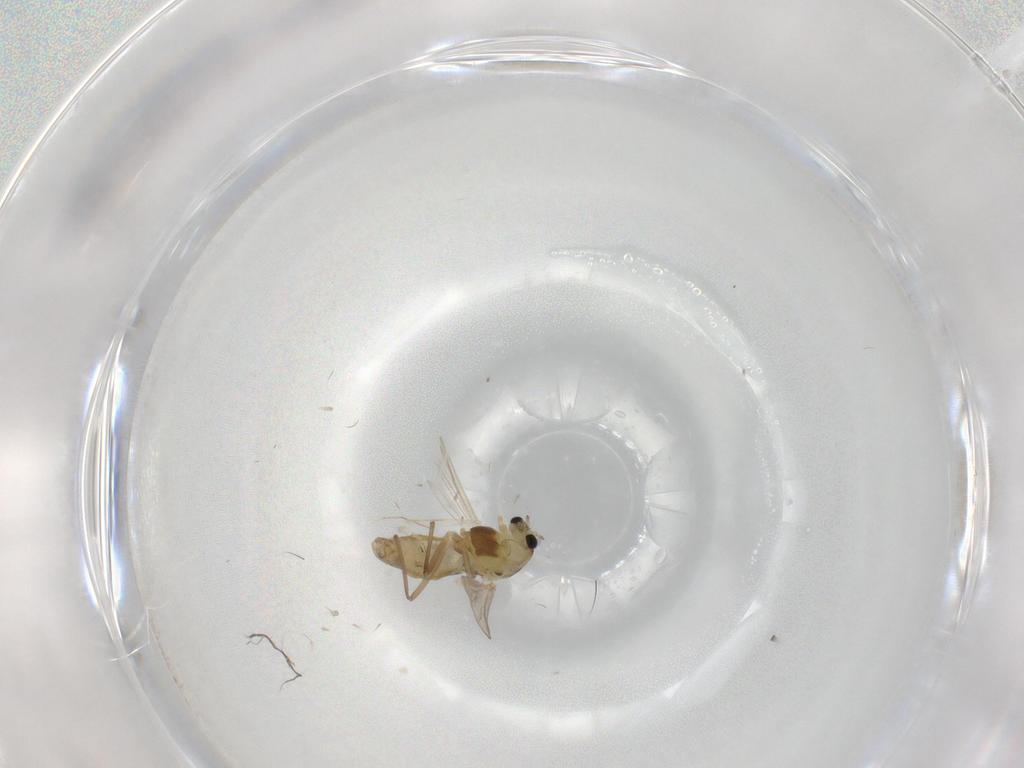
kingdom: Animalia
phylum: Arthropoda
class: Insecta
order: Diptera
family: Chironomidae
